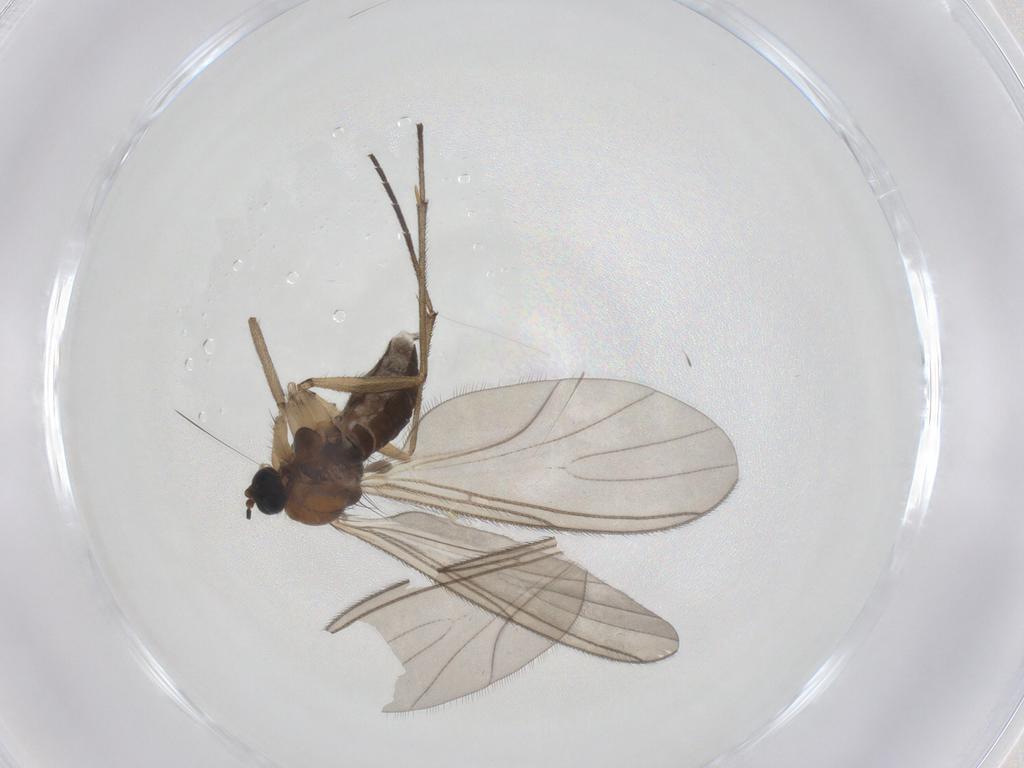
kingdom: Animalia
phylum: Arthropoda
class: Insecta
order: Diptera
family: Sciaridae
